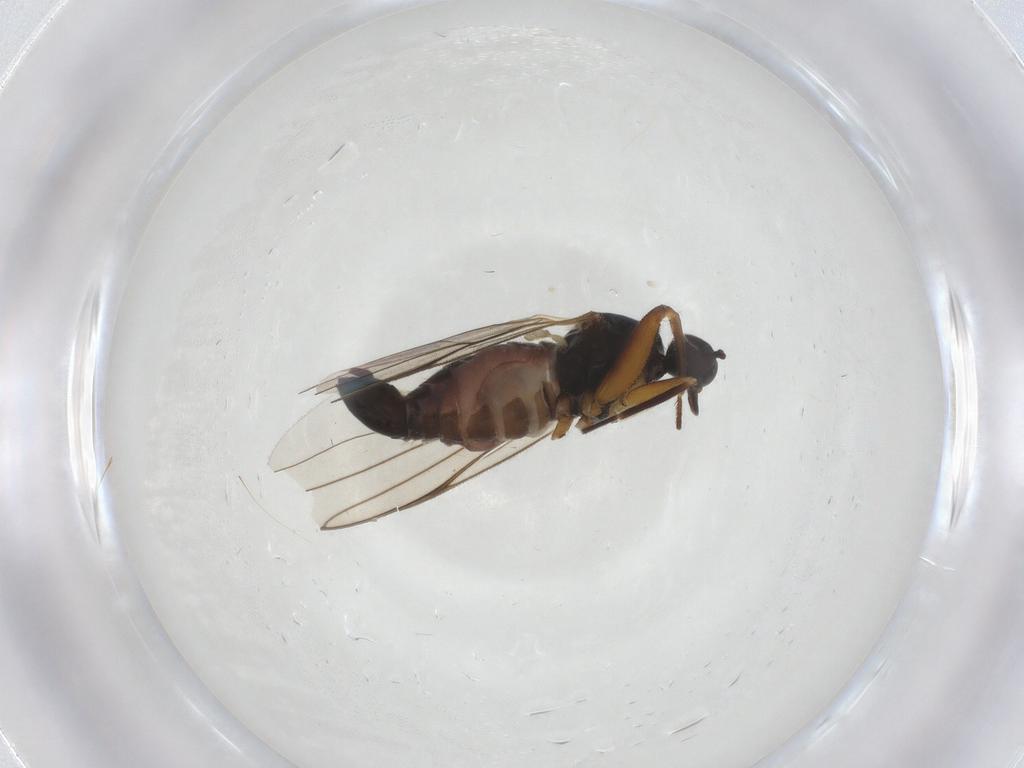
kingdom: Animalia
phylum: Arthropoda
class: Insecta
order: Diptera
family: Hybotidae
